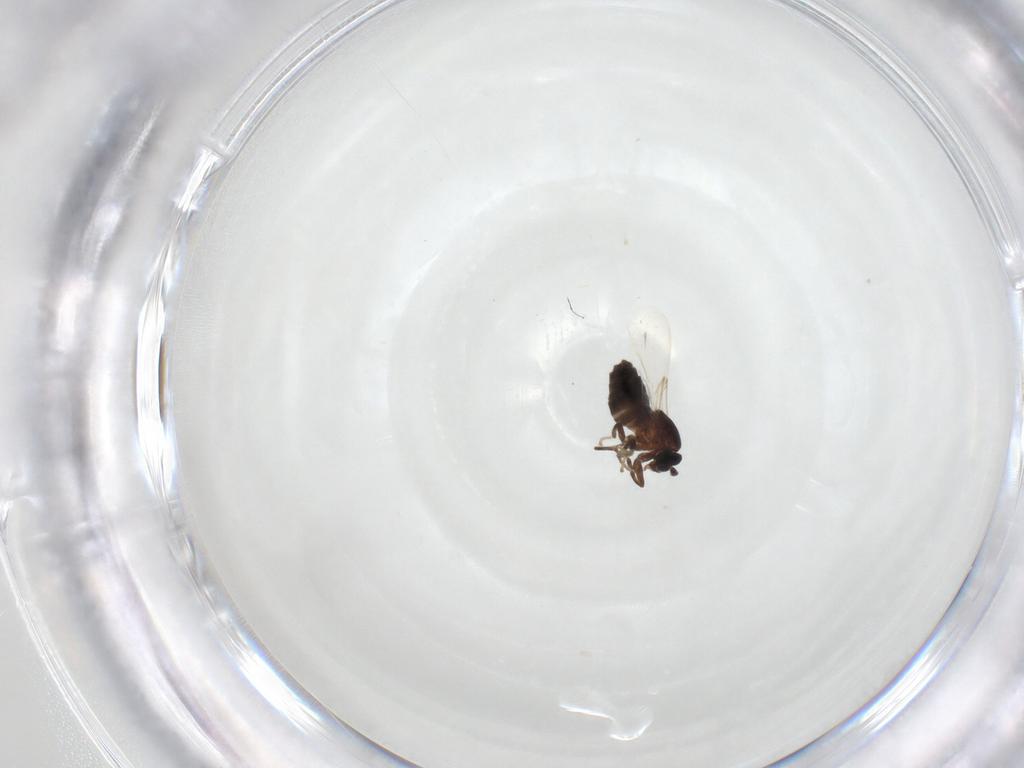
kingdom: Animalia
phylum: Arthropoda
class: Insecta
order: Diptera
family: Scatopsidae
